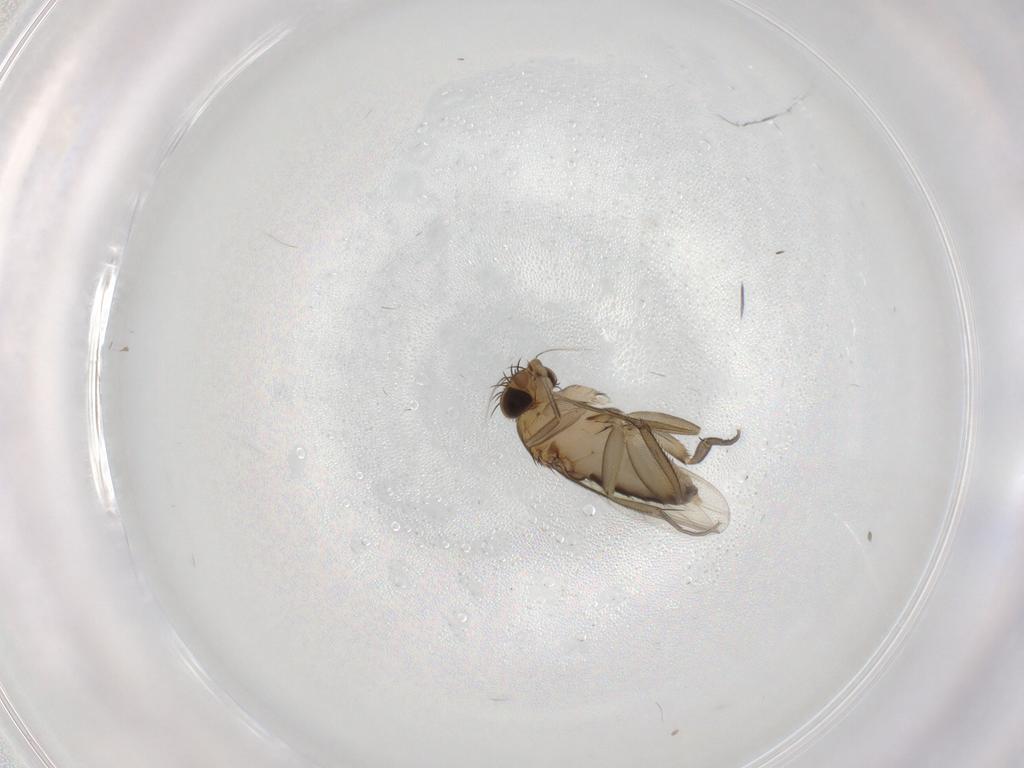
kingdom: Animalia
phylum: Arthropoda
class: Insecta
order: Diptera
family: Phoridae
